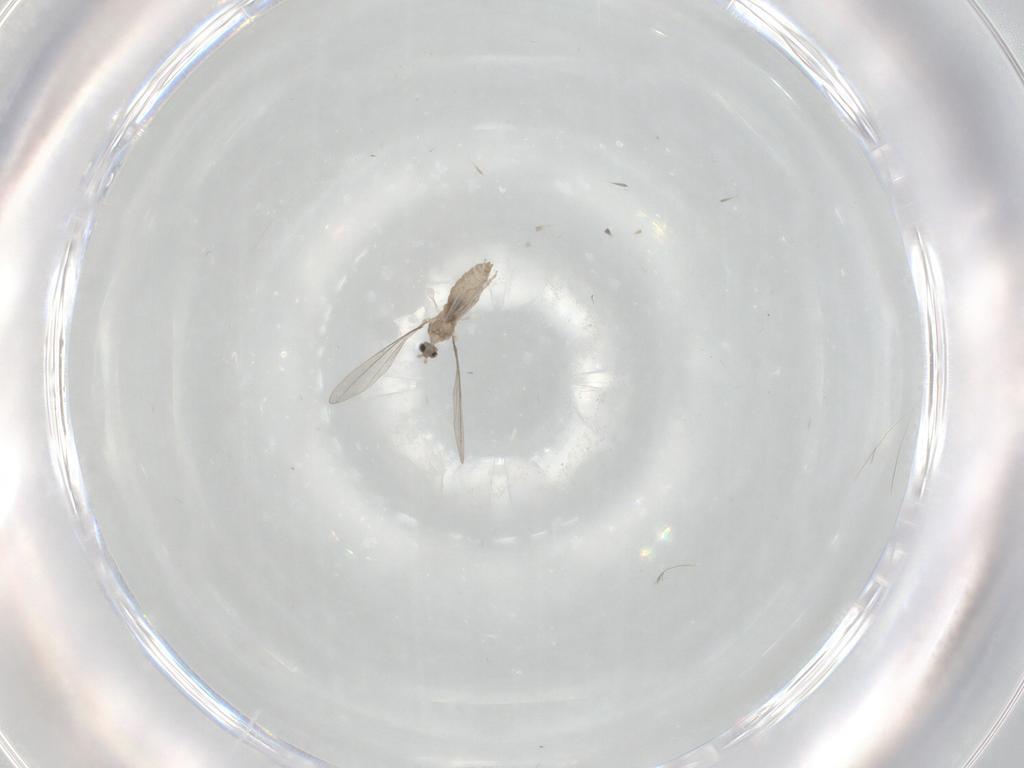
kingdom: Animalia
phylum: Arthropoda
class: Insecta
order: Diptera
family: Cecidomyiidae
